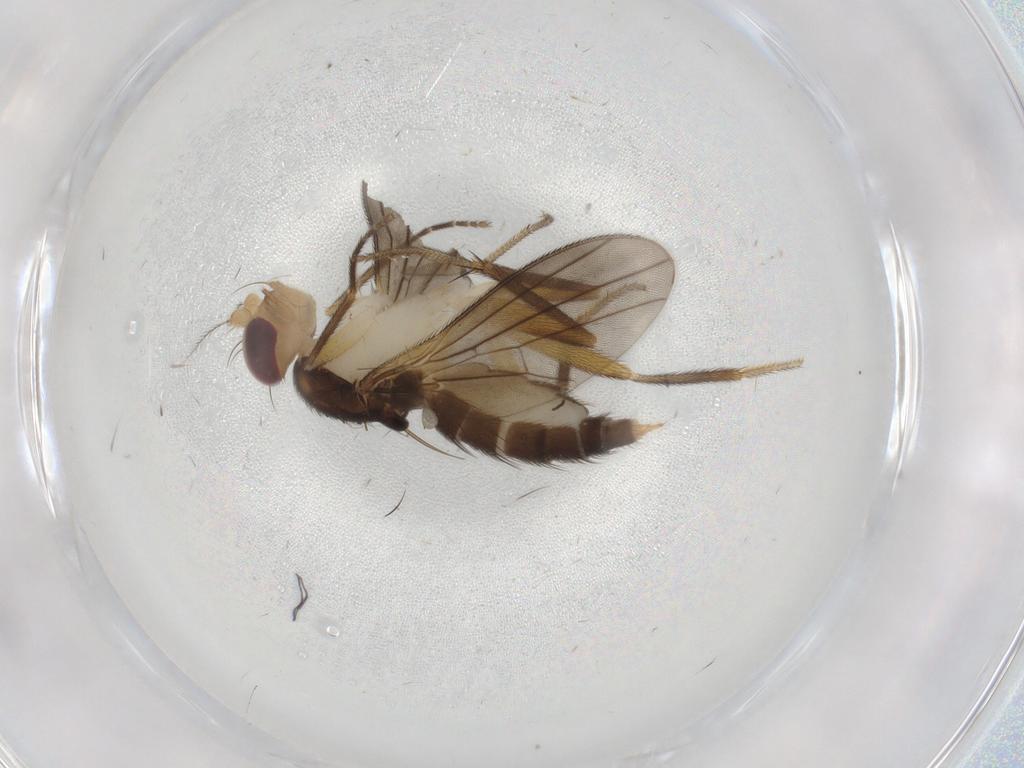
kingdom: Animalia
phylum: Arthropoda
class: Insecta
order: Diptera
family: Clusiidae
